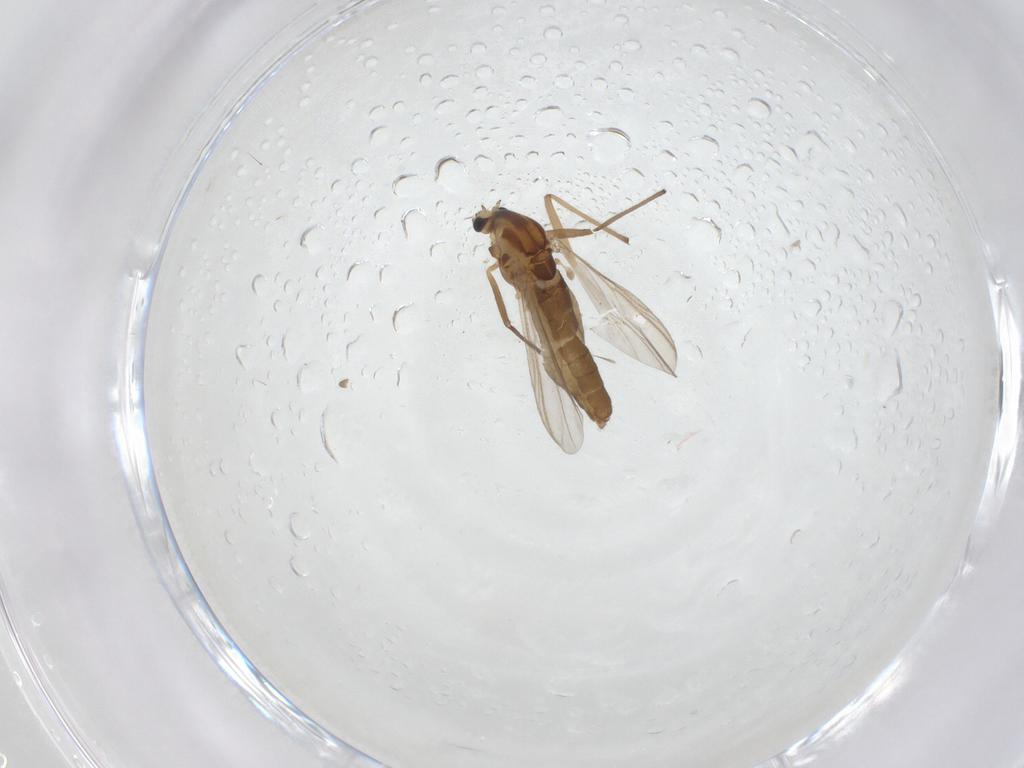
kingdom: Animalia
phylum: Arthropoda
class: Insecta
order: Diptera
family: Chironomidae
